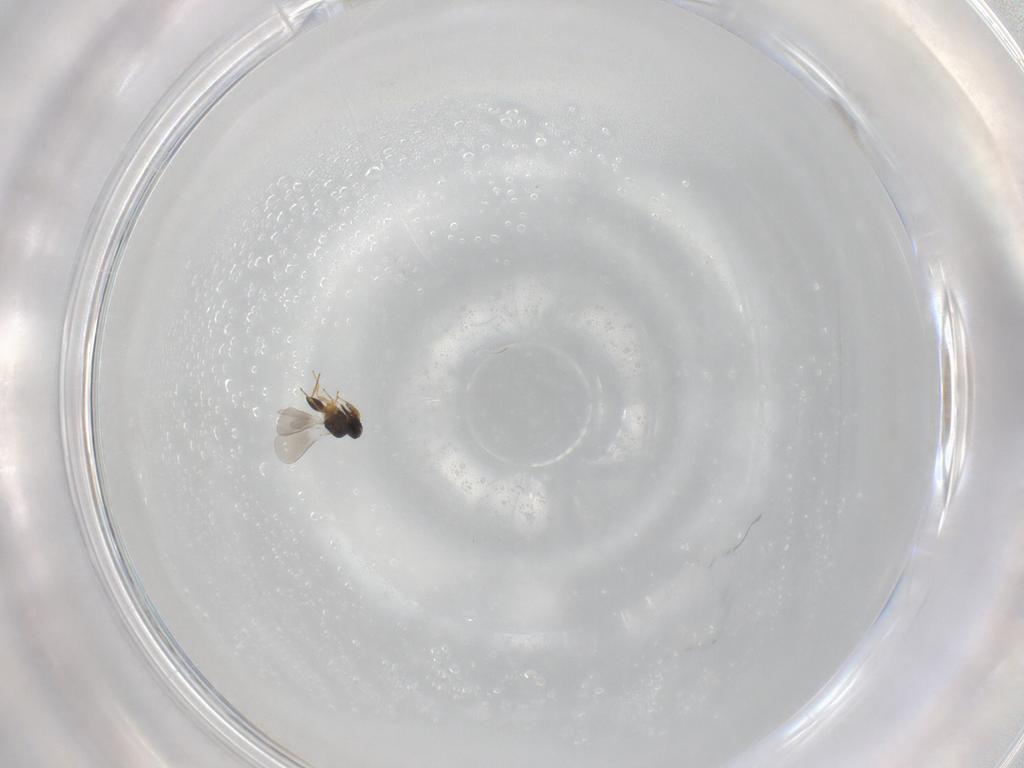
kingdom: Animalia
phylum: Arthropoda
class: Insecta
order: Hymenoptera
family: Platygastridae
